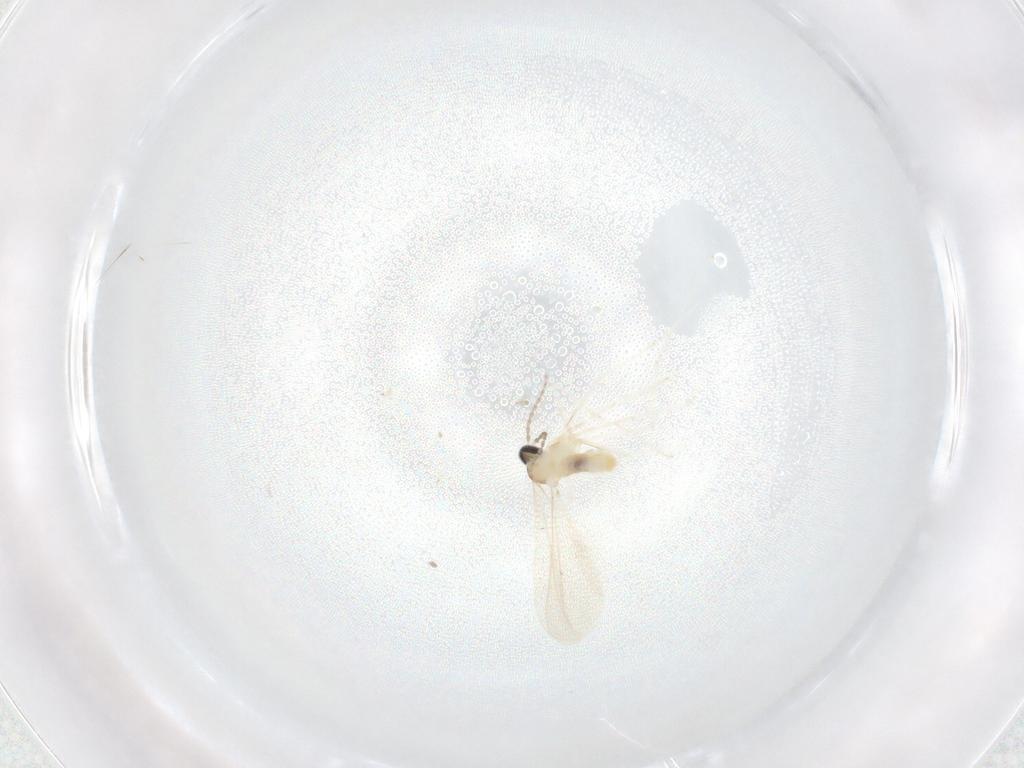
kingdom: Animalia
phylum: Arthropoda
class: Insecta
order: Diptera
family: Cecidomyiidae
